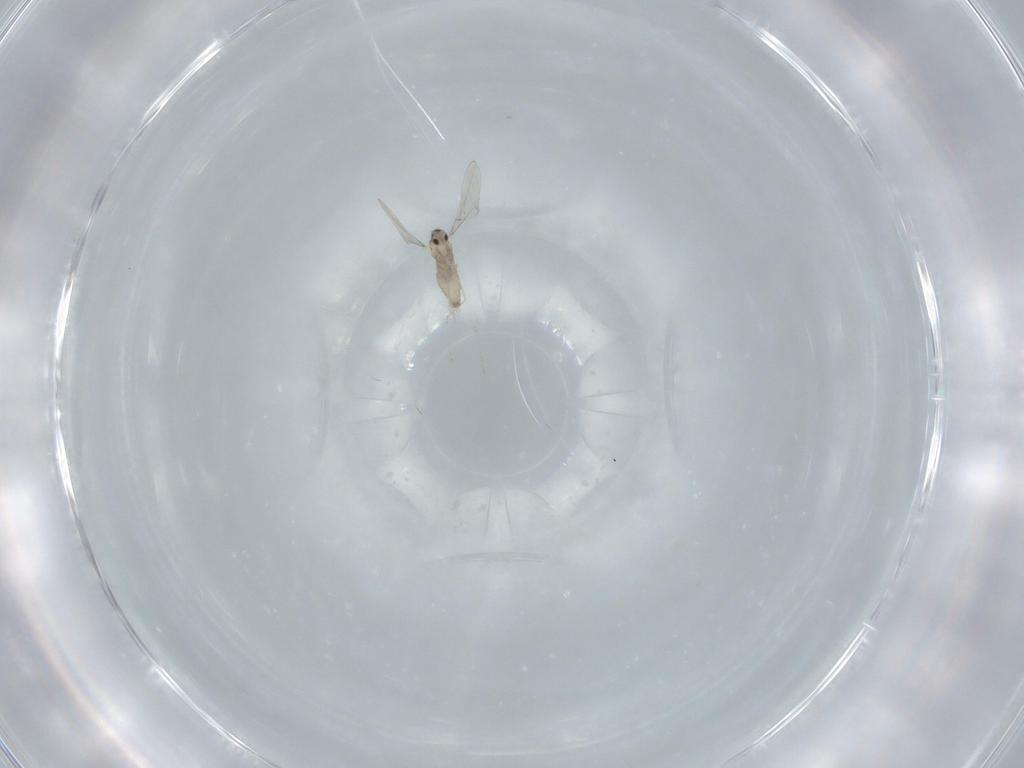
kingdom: Animalia
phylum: Arthropoda
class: Insecta
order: Diptera
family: Cecidomyiidae
